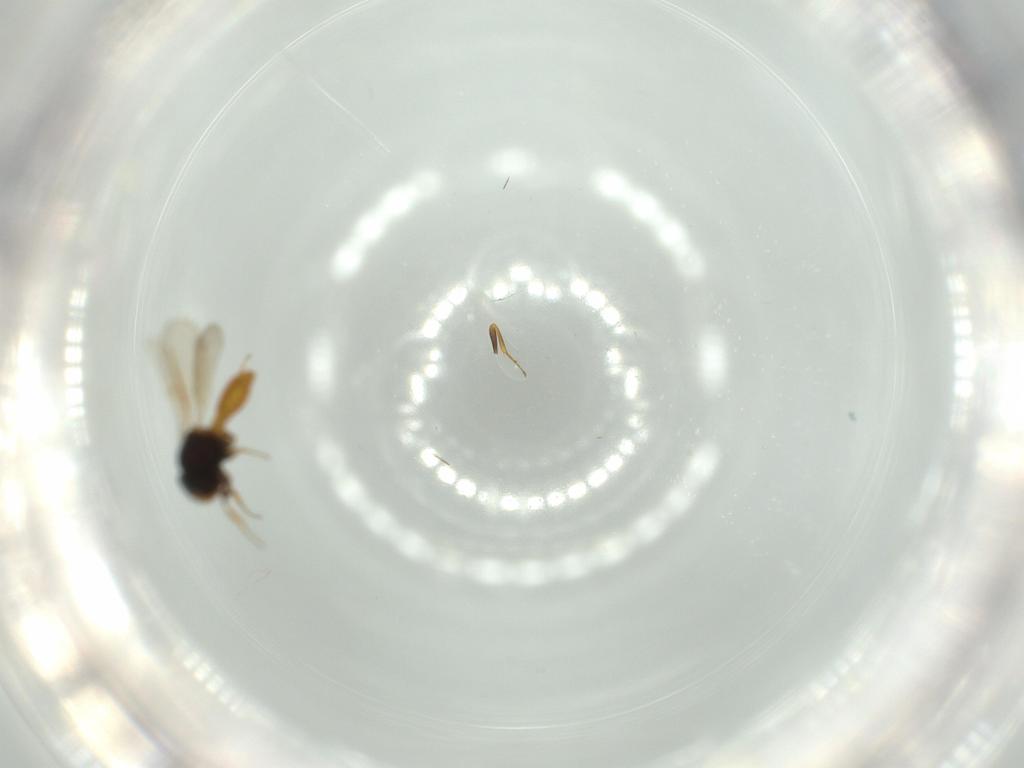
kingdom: Animalia
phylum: Arthropoda
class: Insecta
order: Hymenoptera
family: Scelionidae
